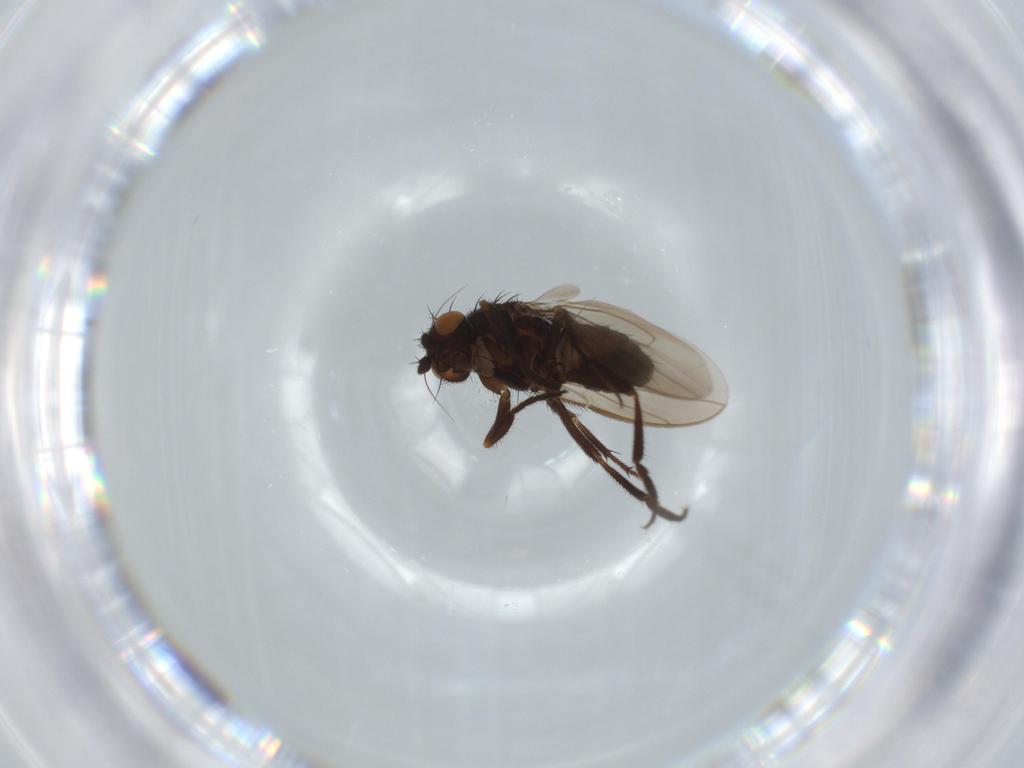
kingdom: Animalia
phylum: Arthropoda
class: Insecta
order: Diptera
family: Sphaeroceridae
